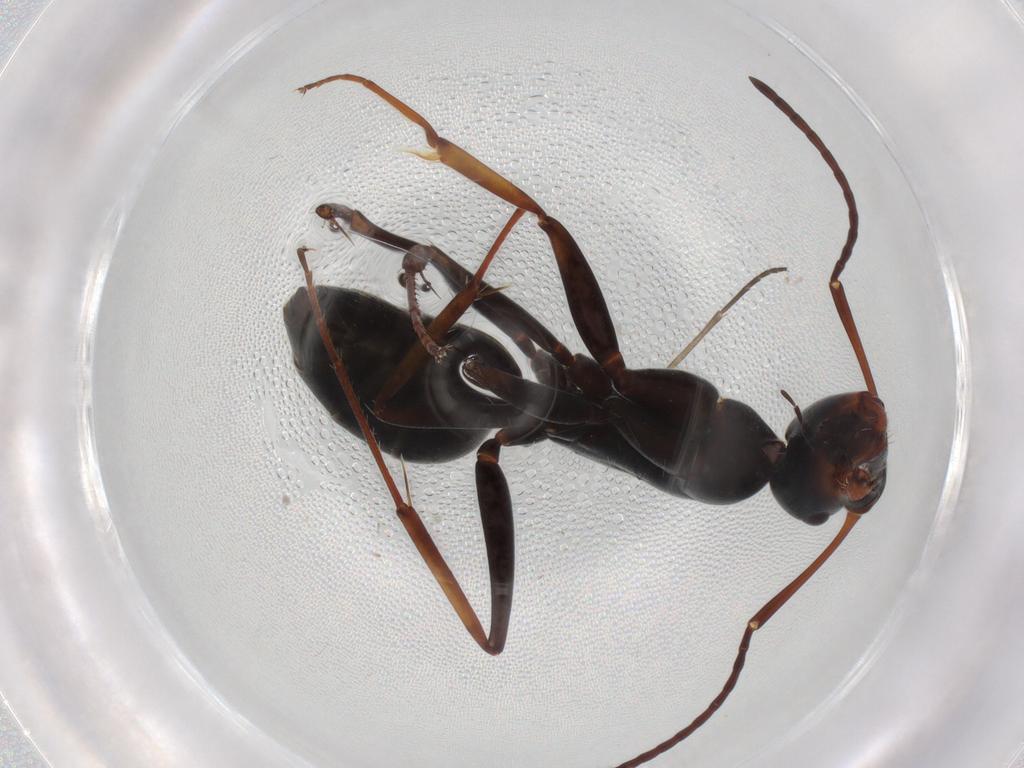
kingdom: Animalia
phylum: Arthropoda
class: Insecta
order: Hymenoptera
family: Formicidae
